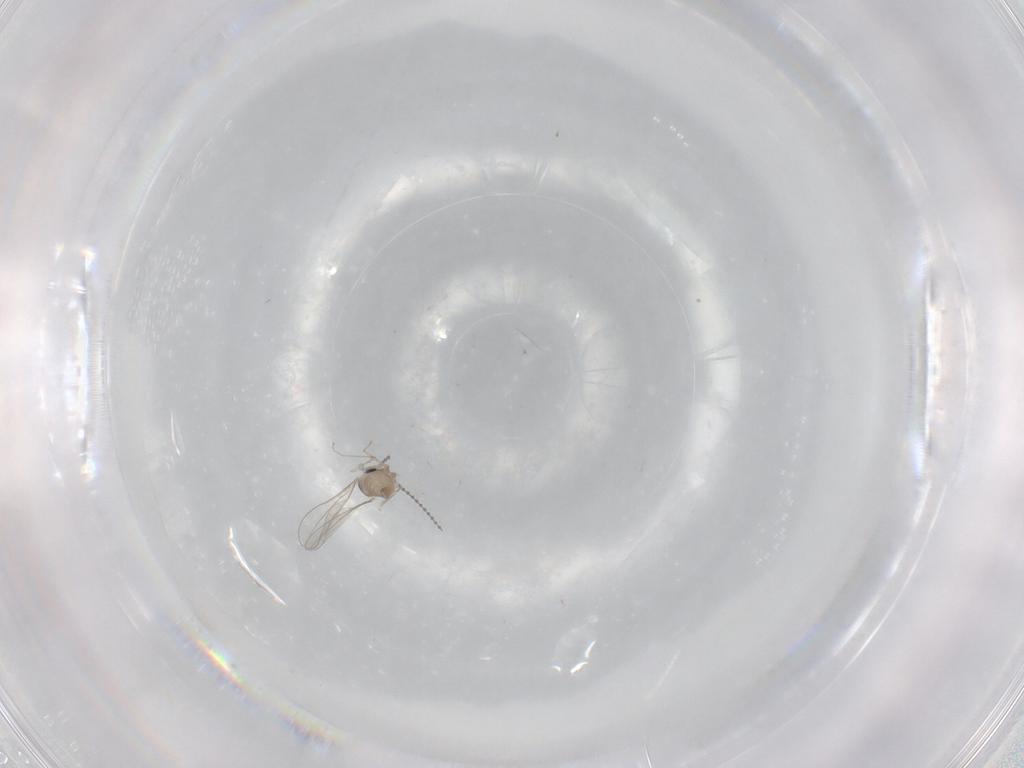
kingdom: Animalia
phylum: Arthropoda
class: Insecta
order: Diptera
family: Cecidomyiidae
